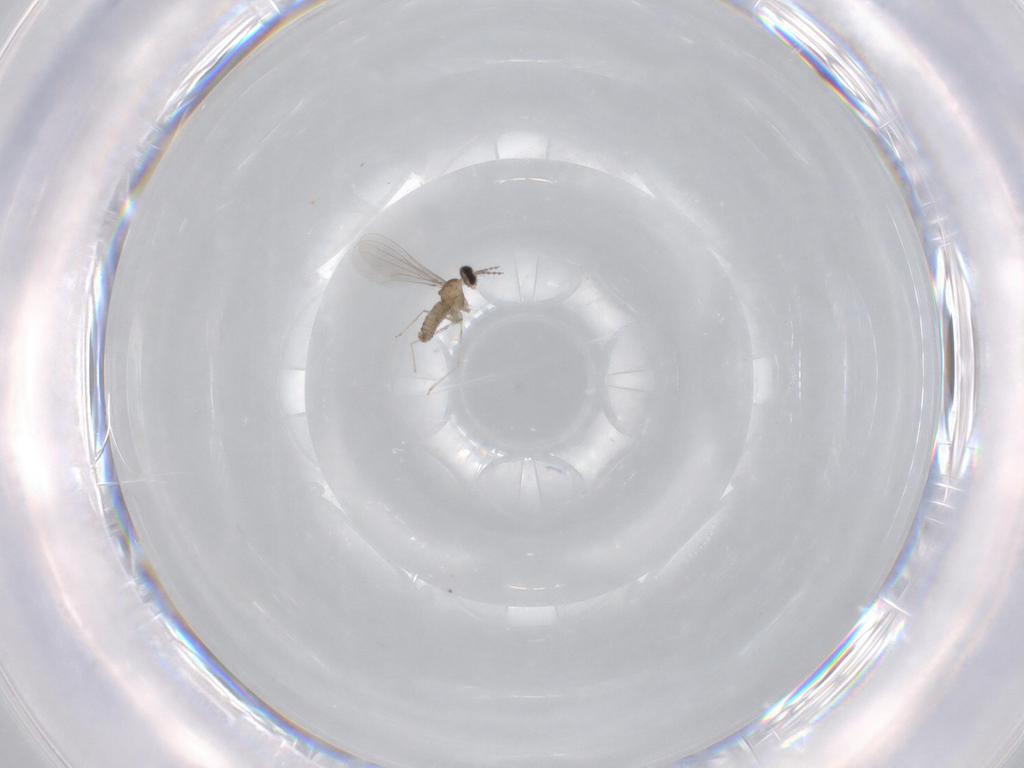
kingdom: Animalia
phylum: Arthropoda
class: Insecta
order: Diptera
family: Cecidomyiidae
